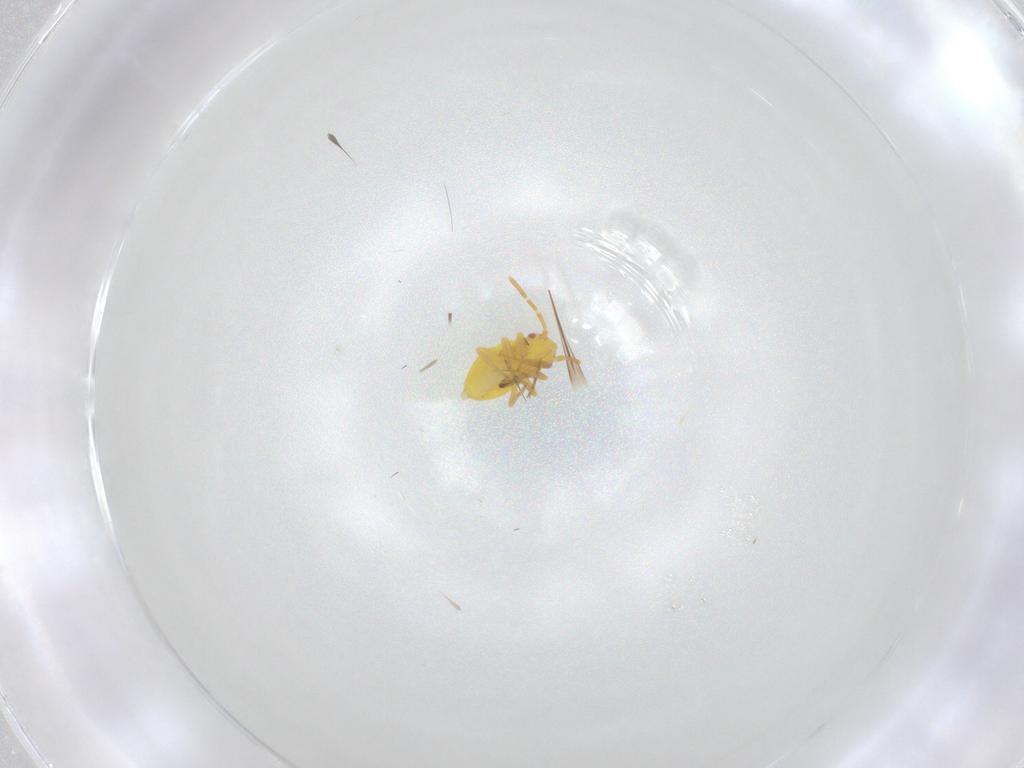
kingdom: Animalia
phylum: Arthropoda
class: Insecta
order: Hemiptera
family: Miridae
